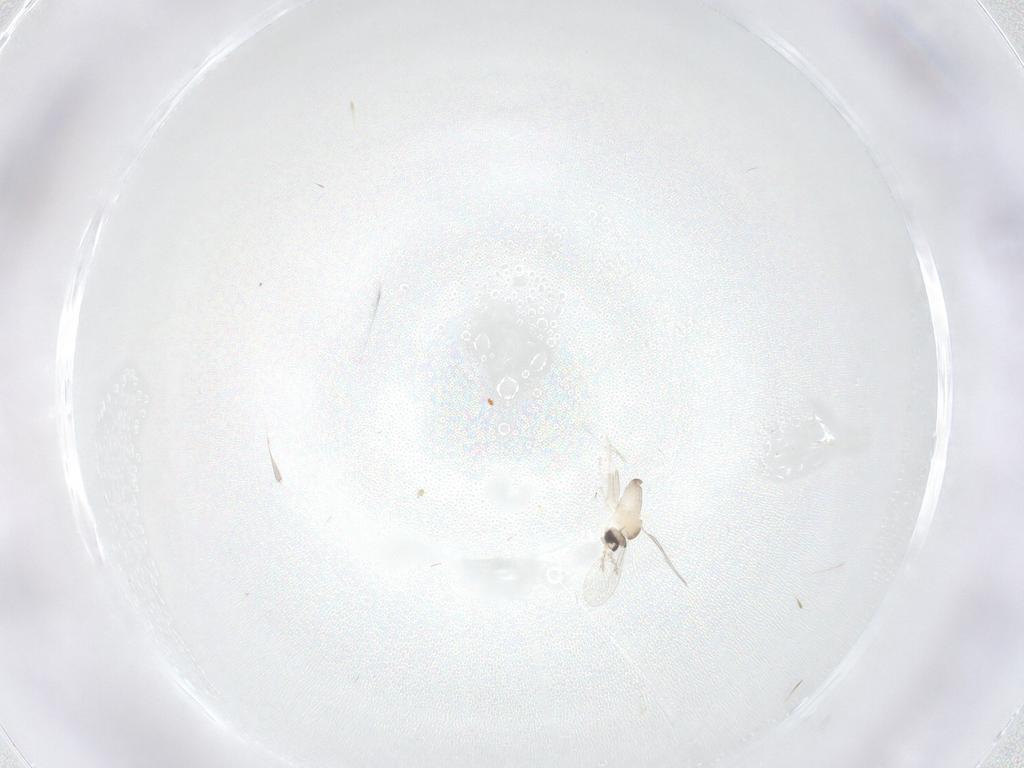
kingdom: Animalia
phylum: Arthropoda
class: Insecta
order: Diptera
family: Cecidomyiidae
